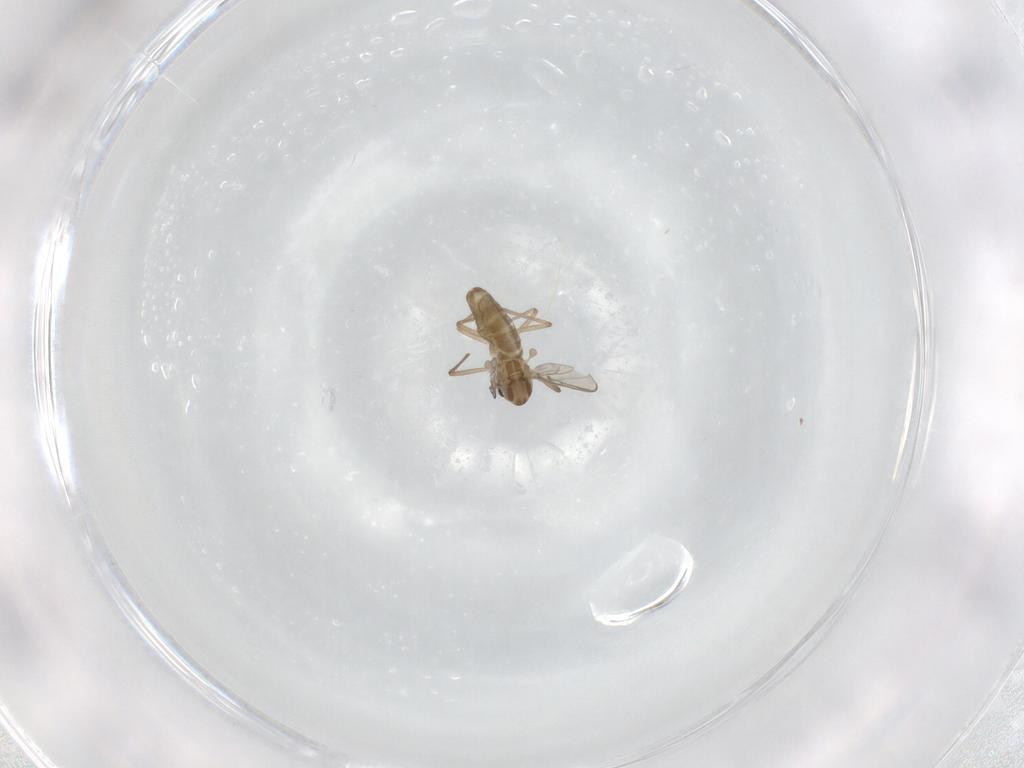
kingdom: Animalia
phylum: Arthropoda
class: Insecta
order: Diptera
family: Chironomidae
